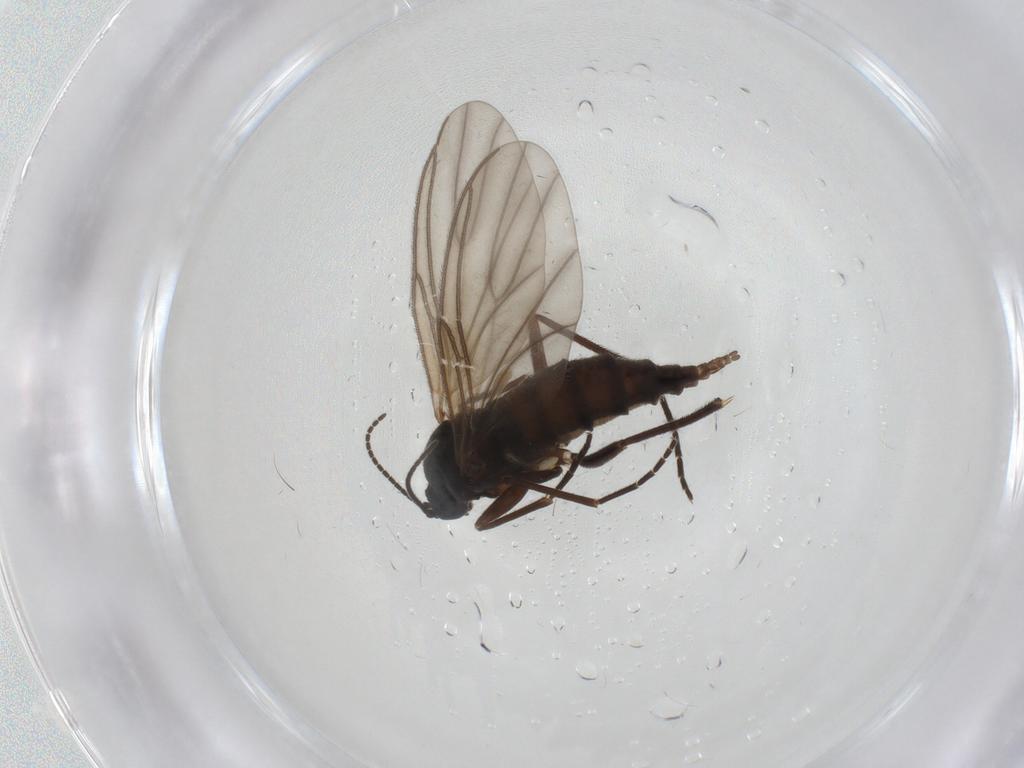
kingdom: Animalia
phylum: Arthropoda
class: Insecta
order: Diptera
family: Sciaridae
